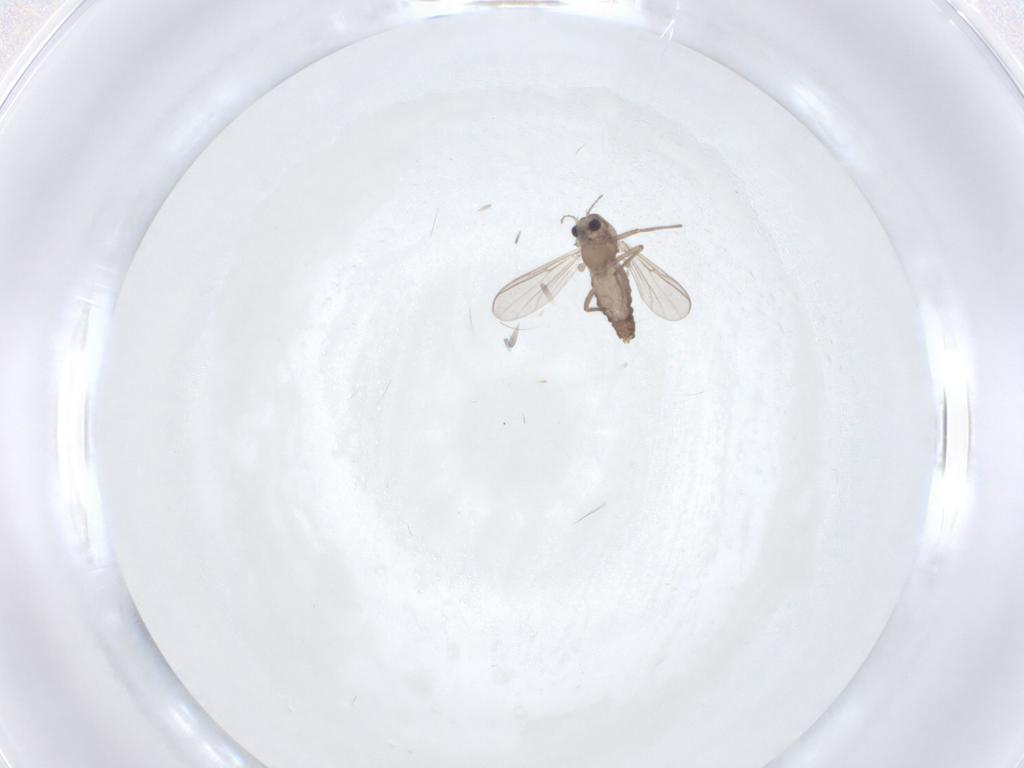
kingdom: Animalia
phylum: Arthropoda
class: Insecta
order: Diptera
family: Chironomidae
